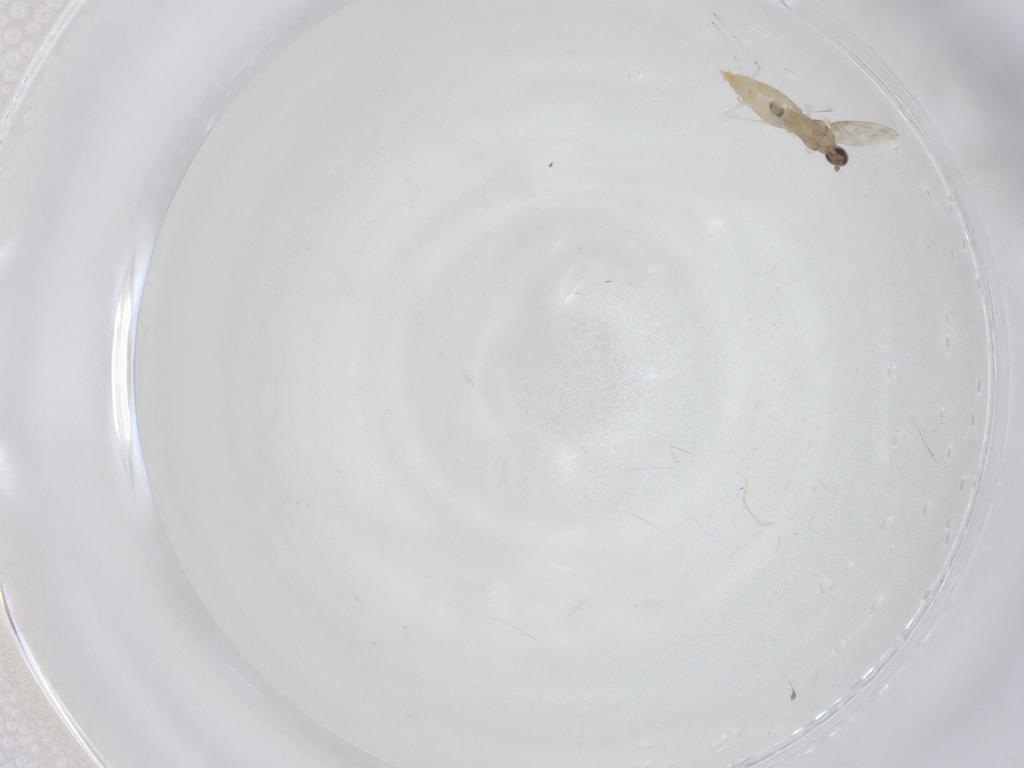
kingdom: Animalia
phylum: Arthropoda
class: Insecta
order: Diptera
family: Cecidomyiidae
